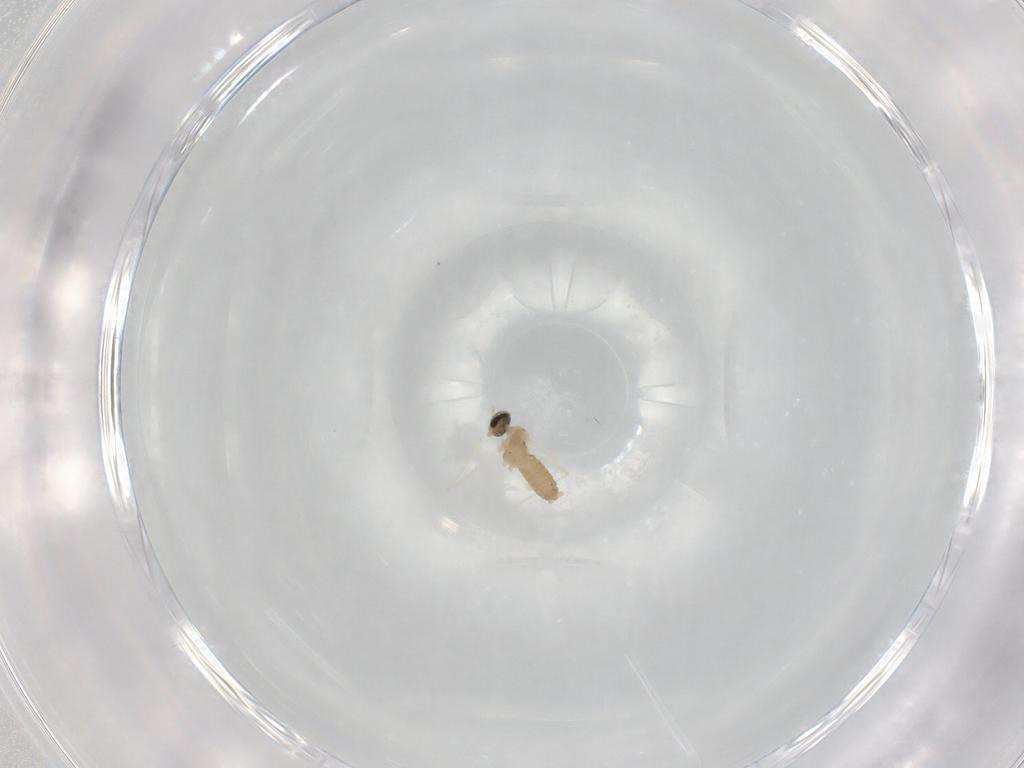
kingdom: Animalia
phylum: Arthropoda
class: Insecta
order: Diptera
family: Cecidomyiidae
